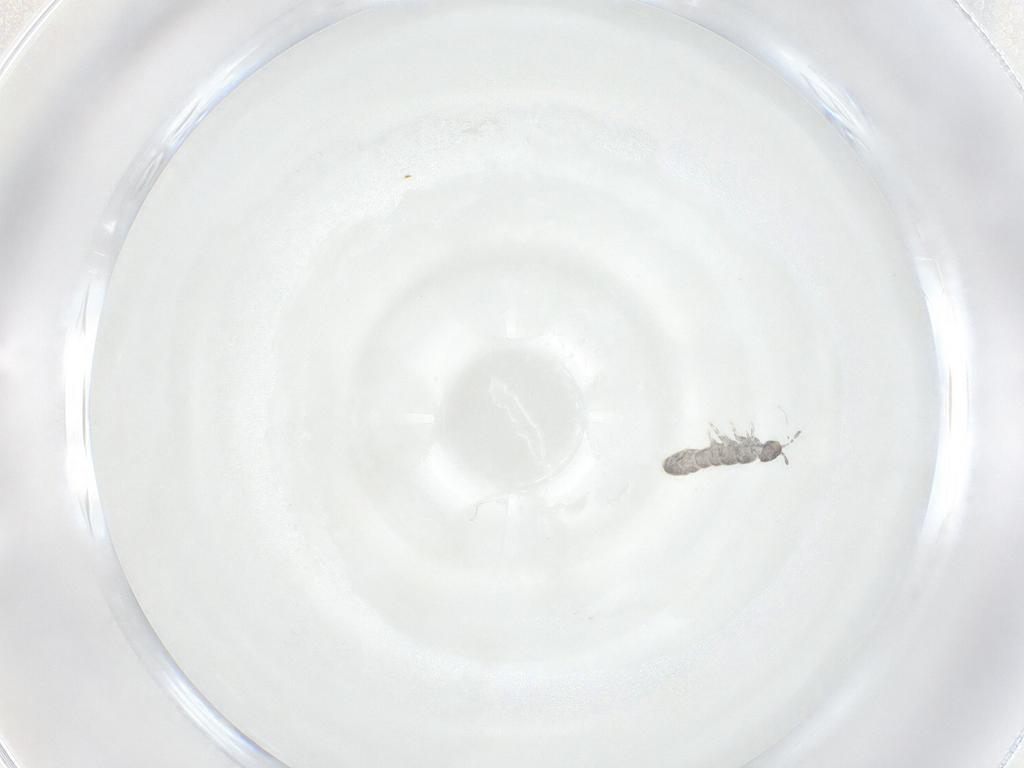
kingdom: Animalia
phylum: Arthropoda
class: Collembola
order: Entomobryomorpha
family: Isotomidae
